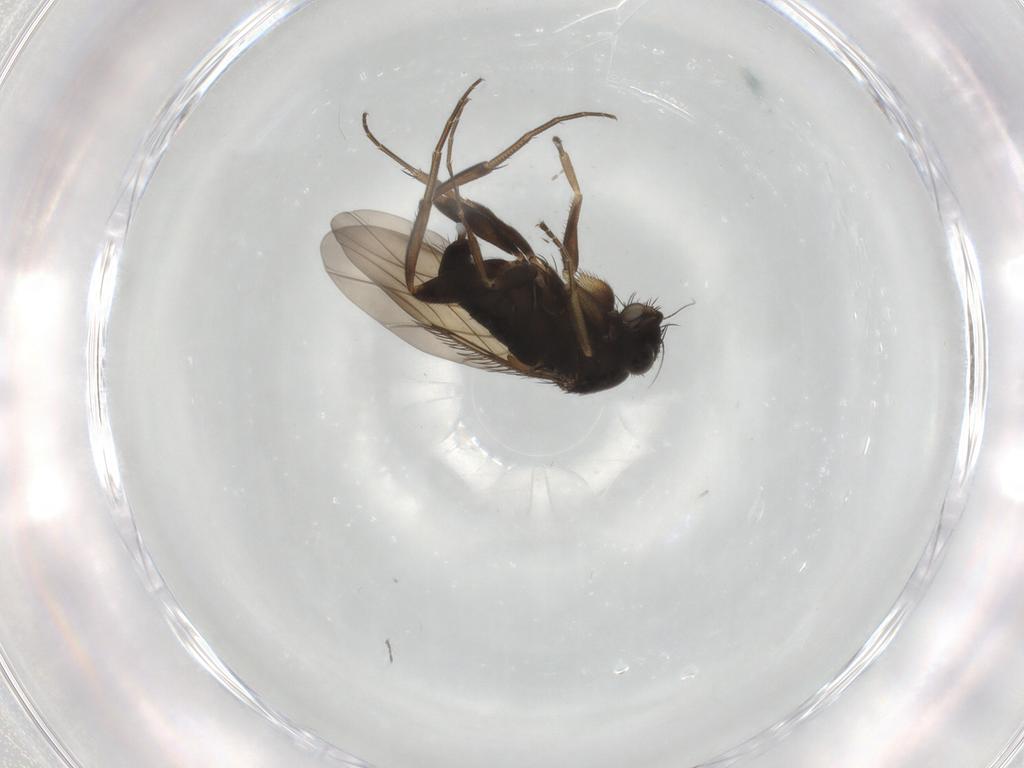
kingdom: Animalia
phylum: Arthropoda
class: Insecta
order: Diptera
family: Phoridae
